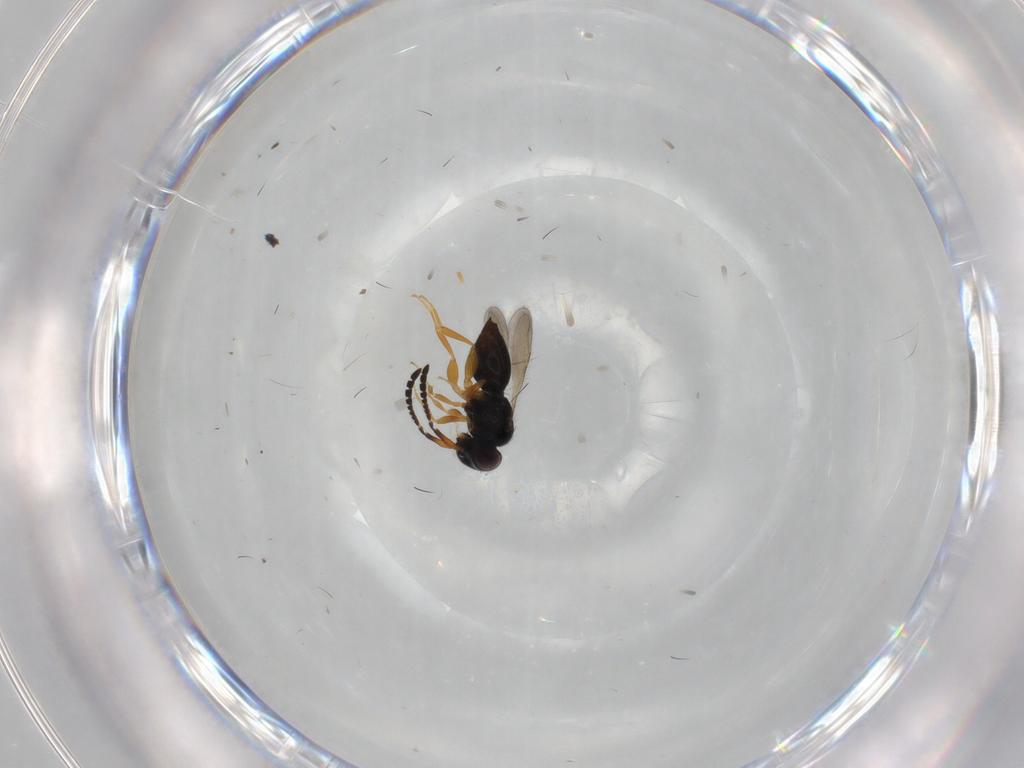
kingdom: Animalia
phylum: Arthropoda
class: Insecta
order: Hymenoptera
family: Ceraphronidae
